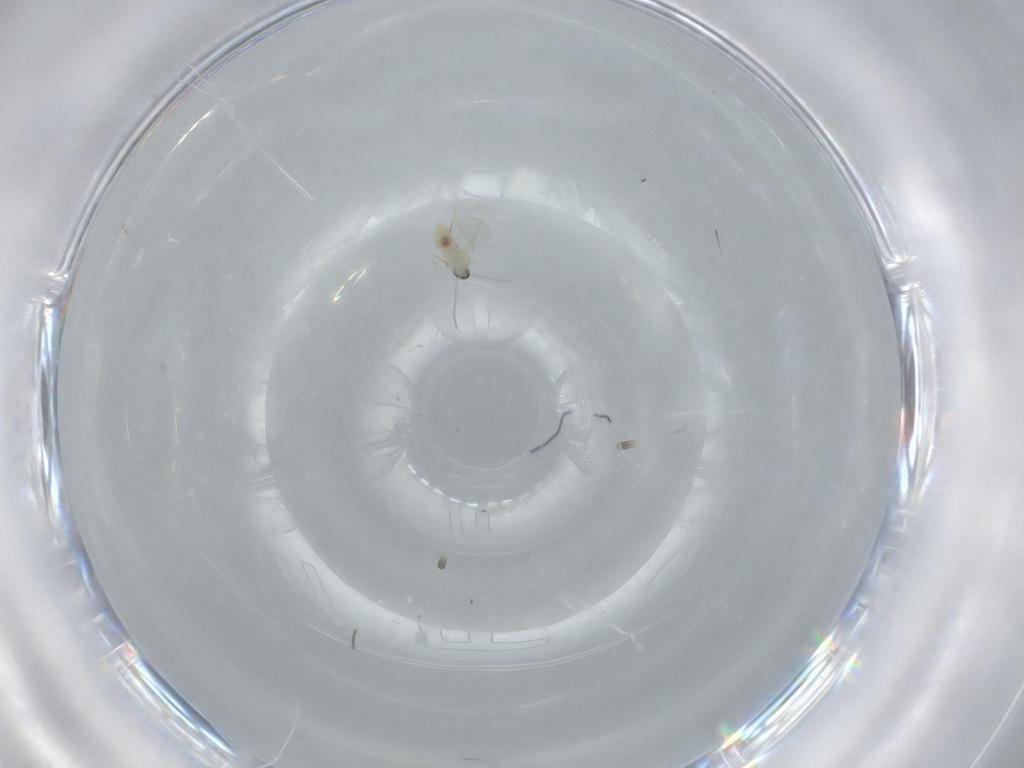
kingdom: Animalia
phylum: Arthropoda
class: Insecta
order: Diptera
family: Cecidomyiidae
